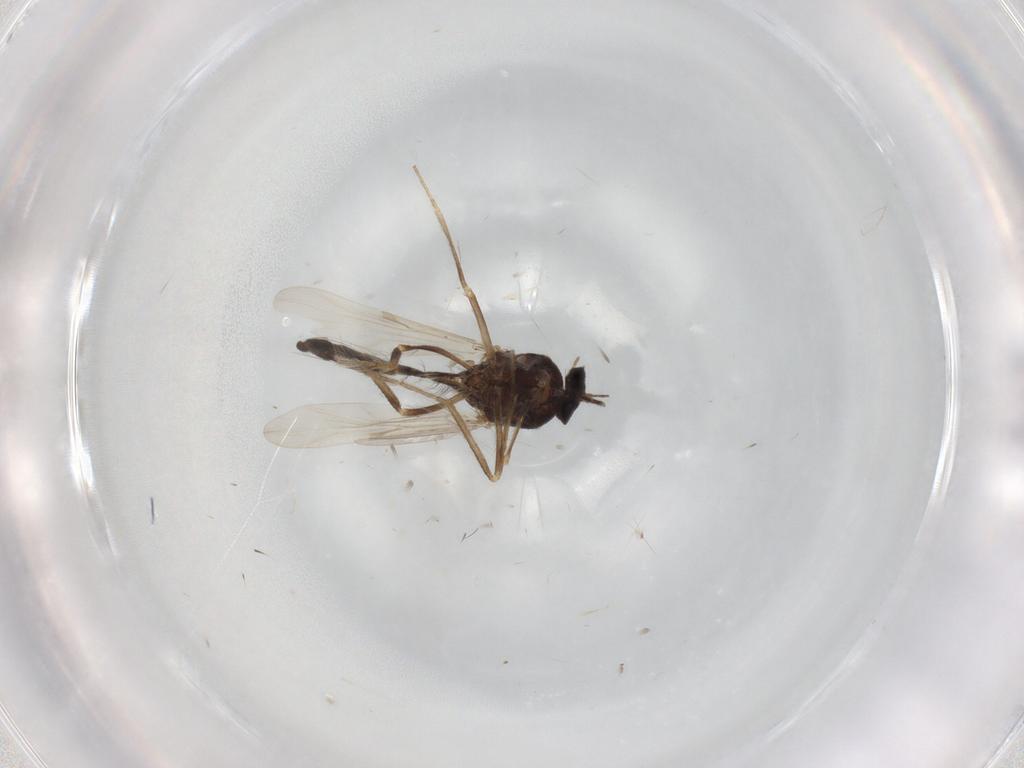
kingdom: Animalia
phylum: Arthropoda
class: Insecta
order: Diptera
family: Ceratopogonidae
